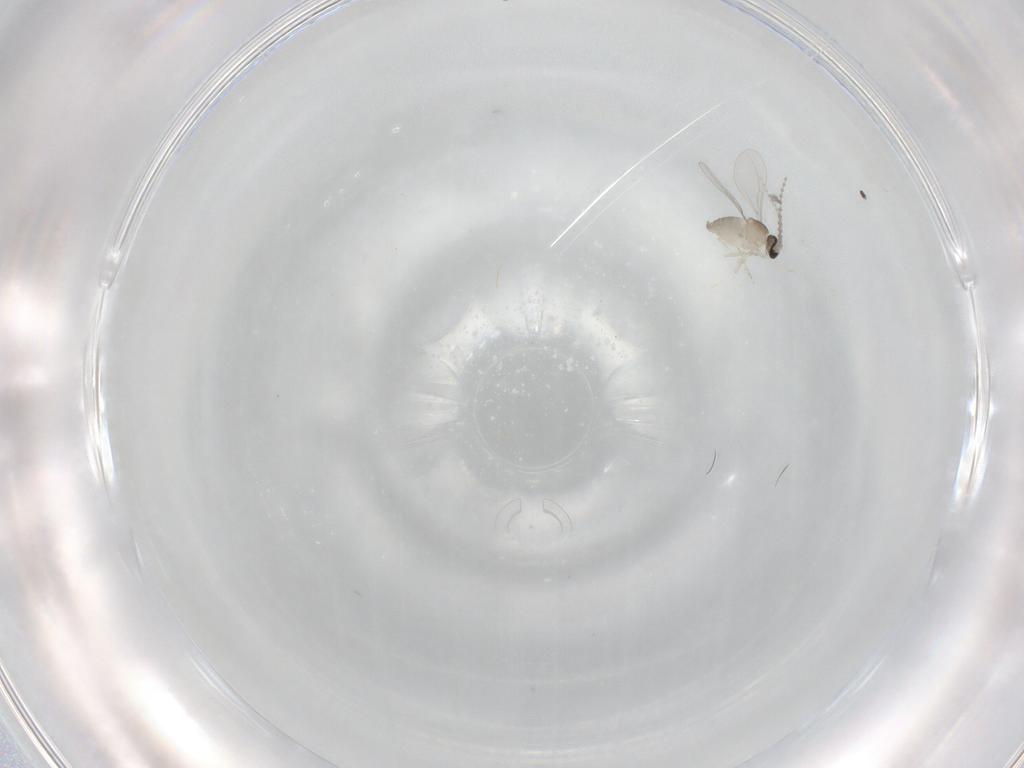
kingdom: Animalia
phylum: Arthropoda
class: Insecta
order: Diptera
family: Cecidomyiidae
